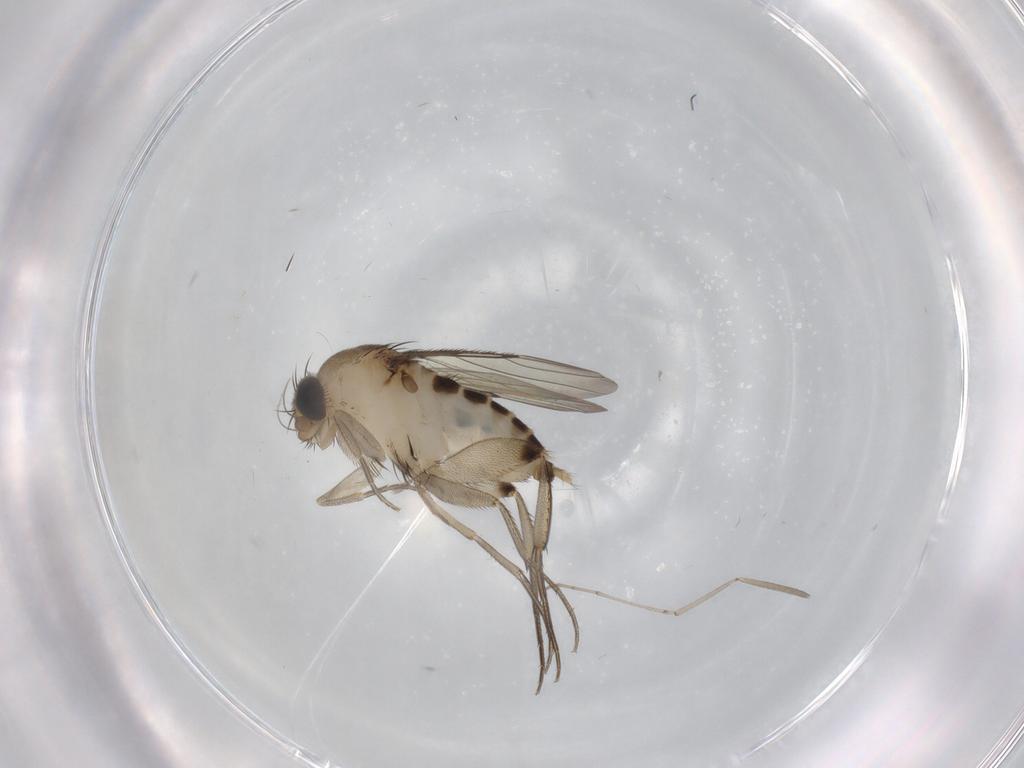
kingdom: Animalia
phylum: Arthropoda
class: Insecta
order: Diptera
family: Phoridae
